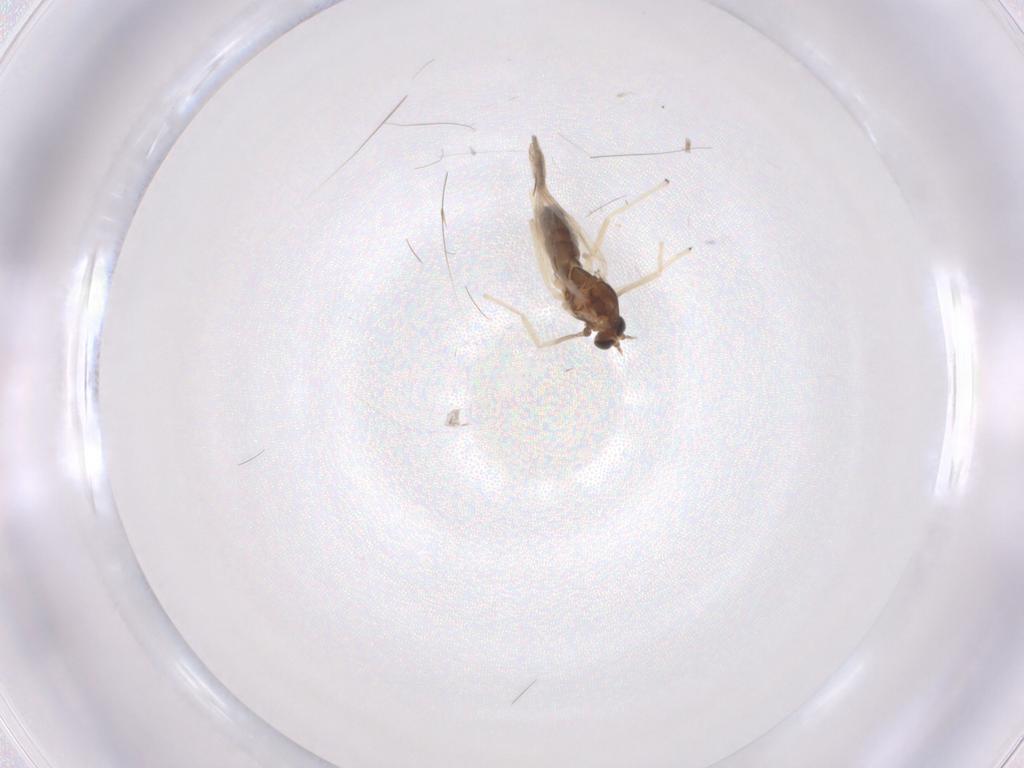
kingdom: Animalia
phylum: Arthropoda
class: Insecta
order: Diptera
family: Chironomidae
